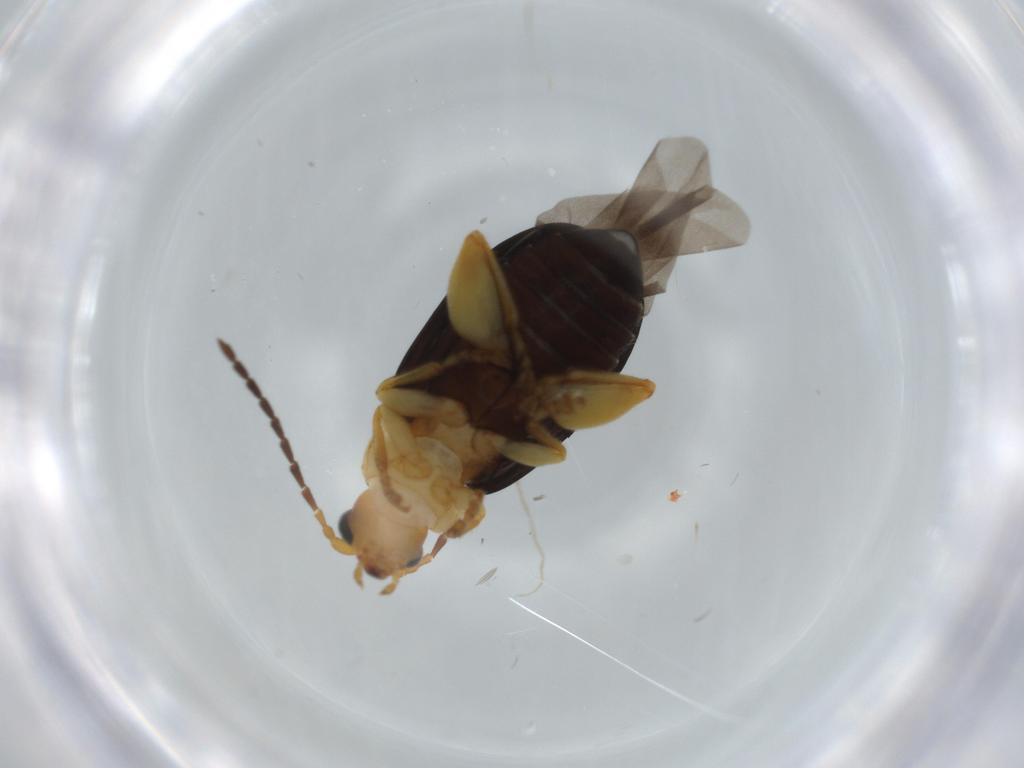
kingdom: Animalia
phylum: Arthropoda
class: Insecta
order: Coleoptera
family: Chrysomelidae
